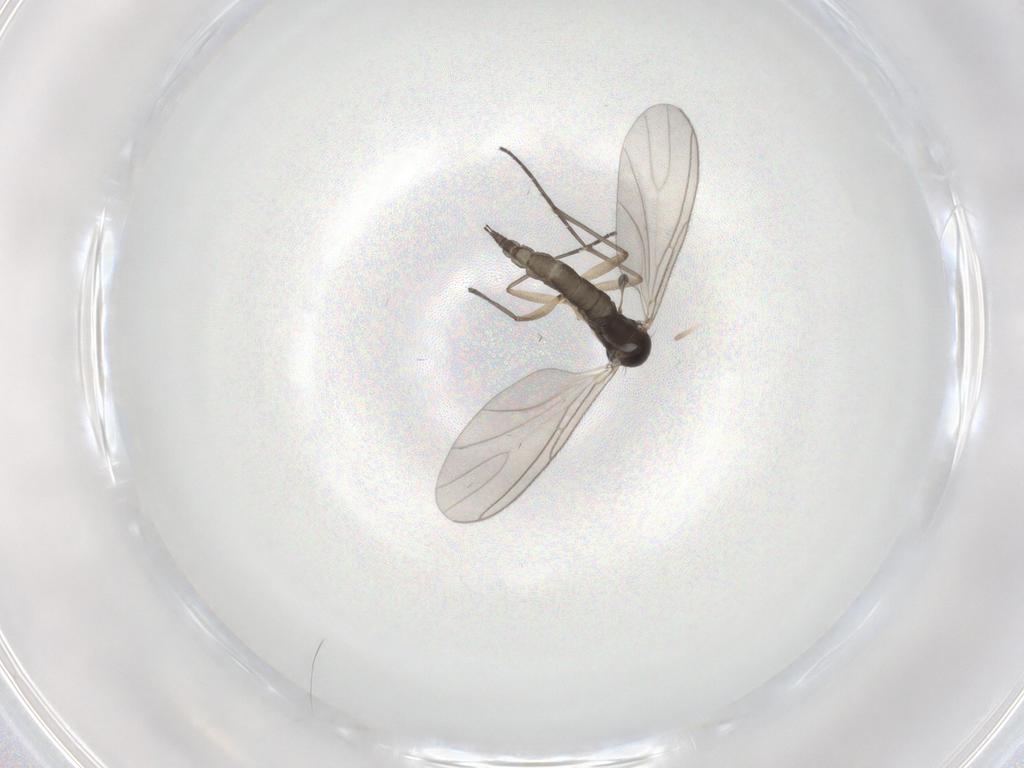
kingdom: Animalia
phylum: Arthropoda
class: Insecta
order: Diptera
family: Sciaridae
